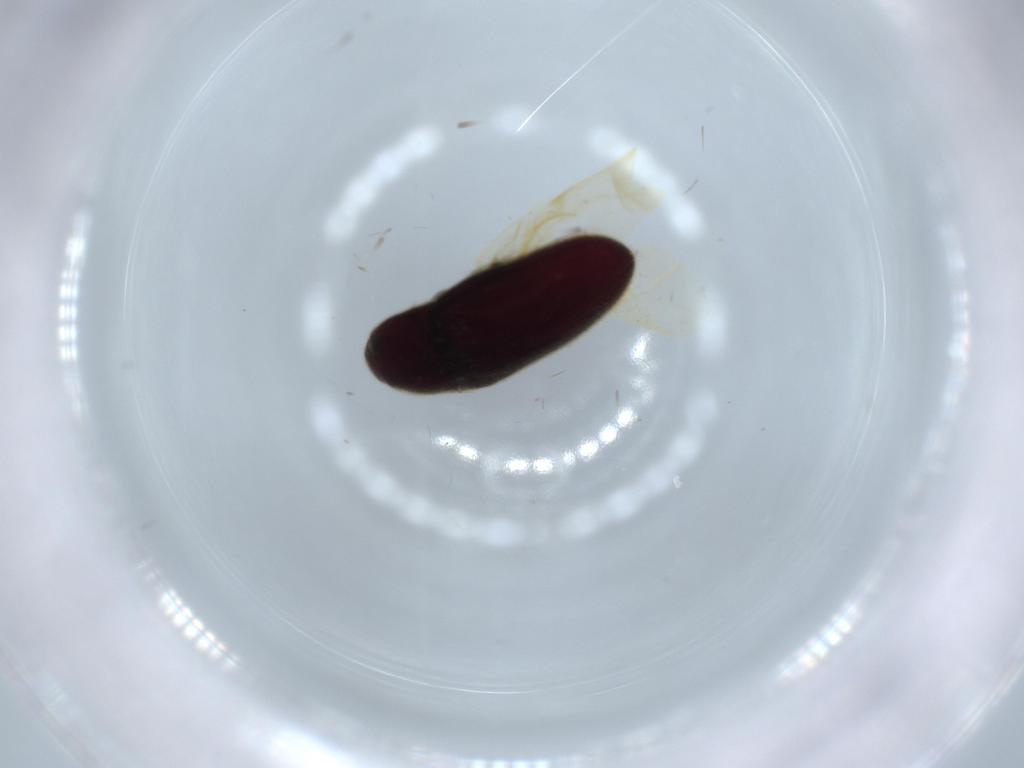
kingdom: Animalia
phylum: Arthropoda
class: Insecta
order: Coleoptera
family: Throscidae
